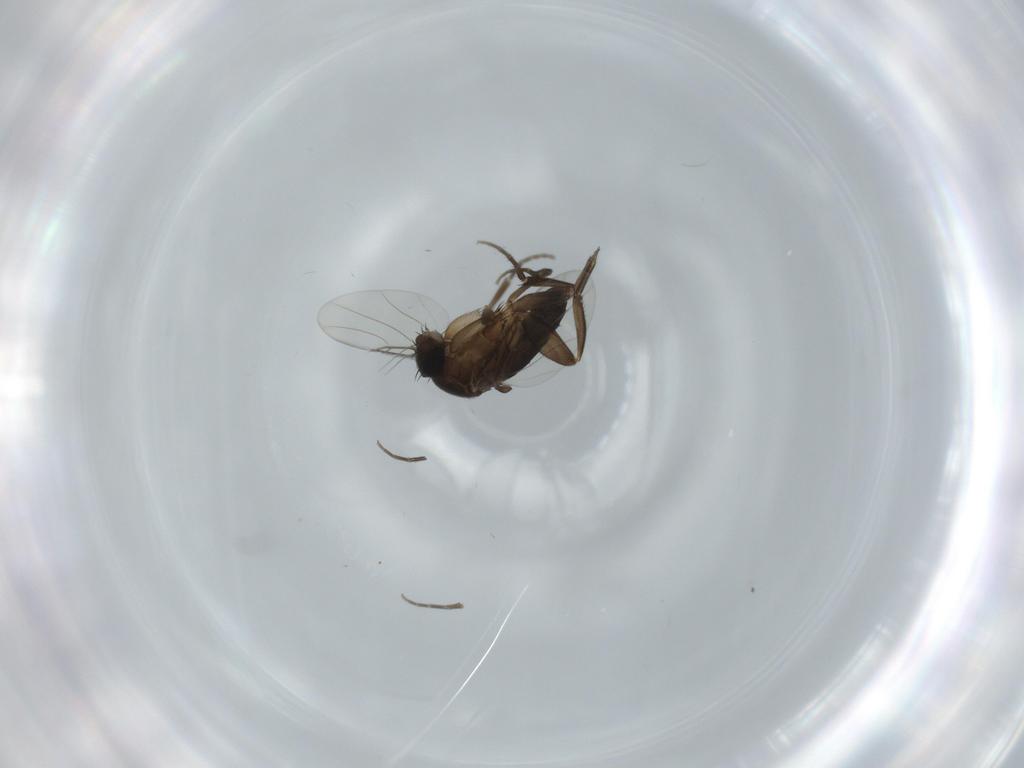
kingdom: Animalia
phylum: Arthropoda
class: Insecta
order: Diptera
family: Phoridae
